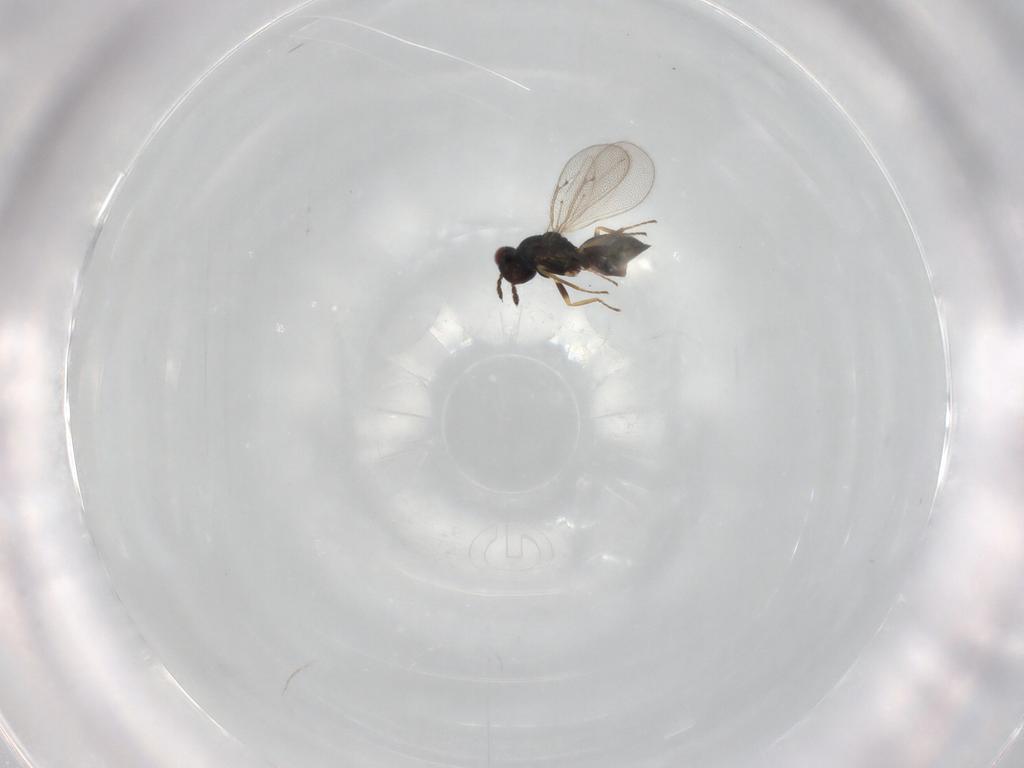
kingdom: Animalia
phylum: Arthropoda
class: Insecta
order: Hymenoptera
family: Eulophidae
